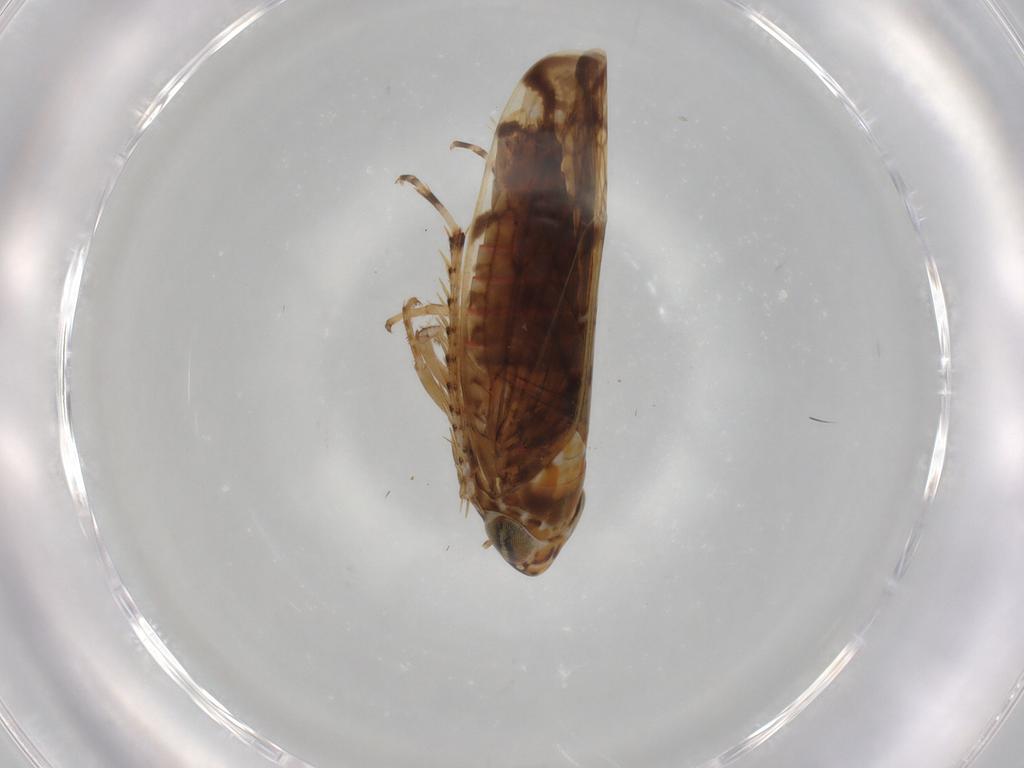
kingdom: Animalia
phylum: Arthropoda
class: Insecta
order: Hemiptera
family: Cicadellidae
